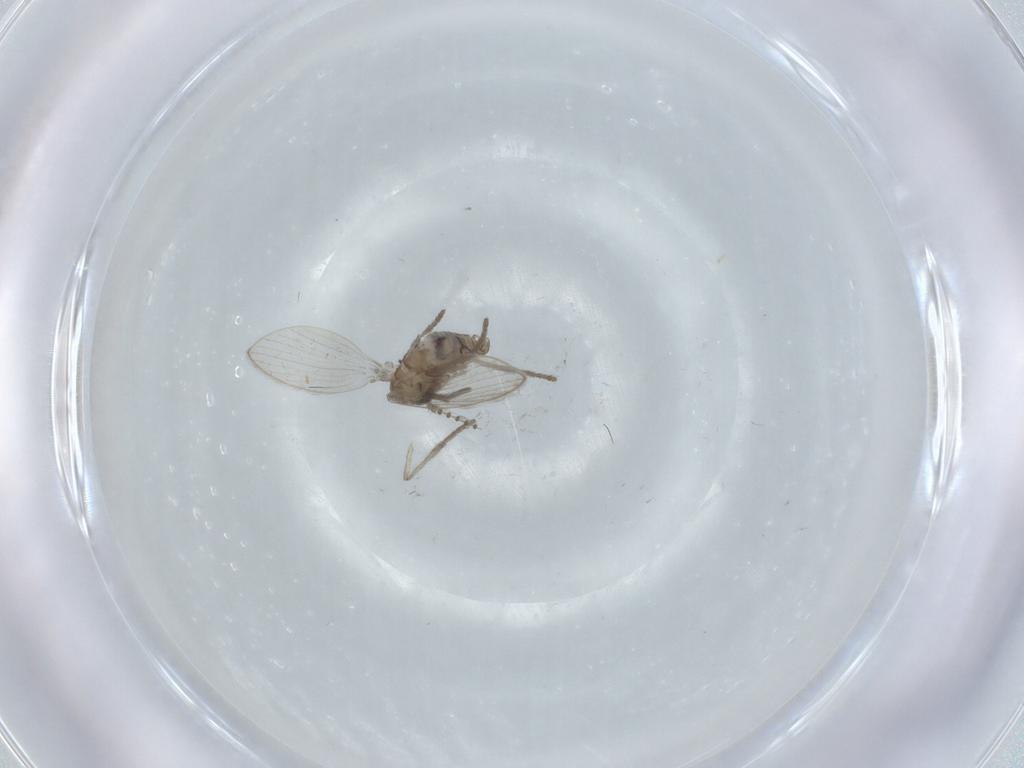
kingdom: Animalia
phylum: Arthropoda
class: Insecta
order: Diptera
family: Psychodidae
